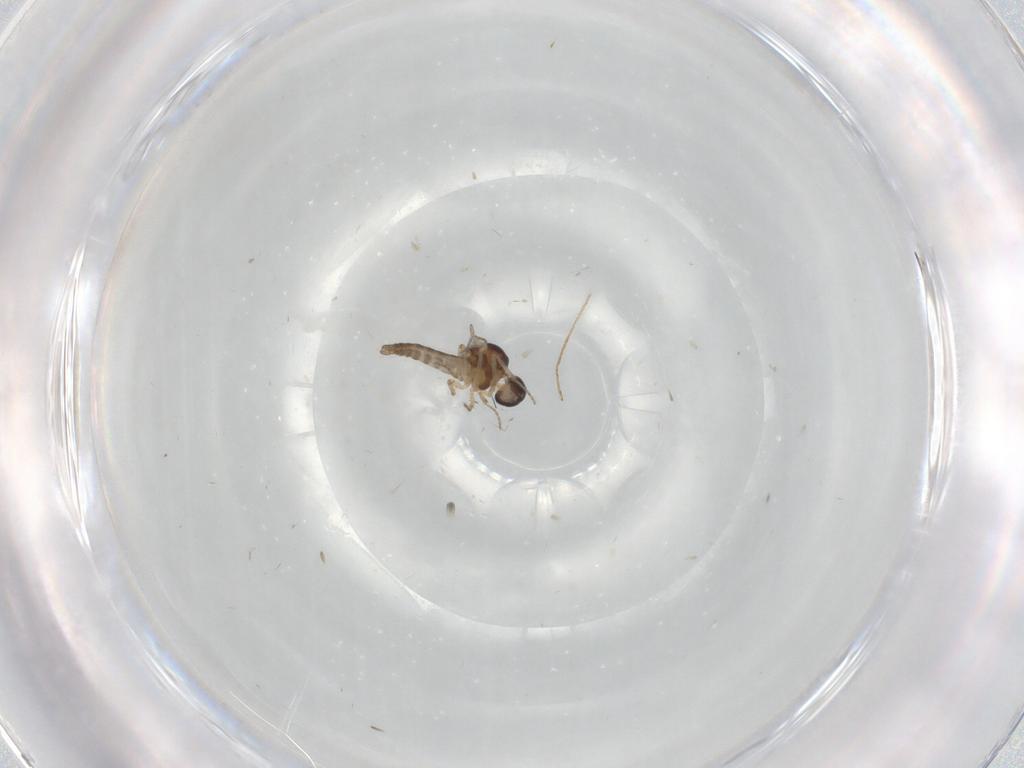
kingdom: Animalia
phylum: Arthropoda
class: Insecta
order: Diptera
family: Ceratopogonidae
